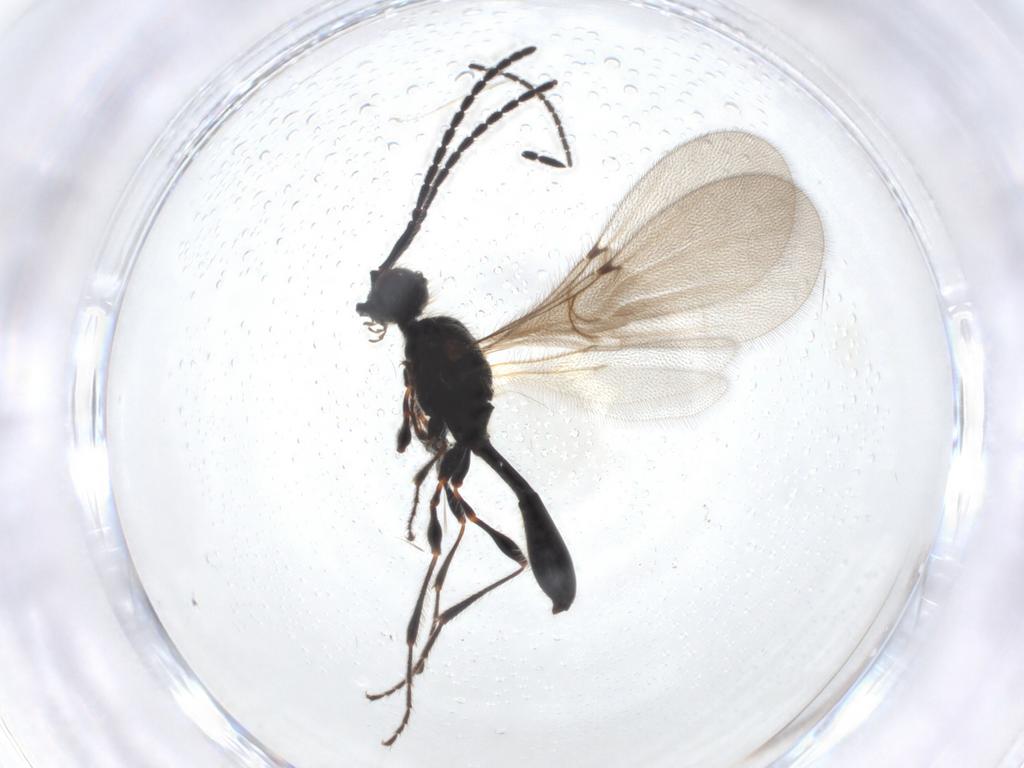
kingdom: Animalia
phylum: Arthropoda
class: Insecta
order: Hymenoptera
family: Diapriidae
